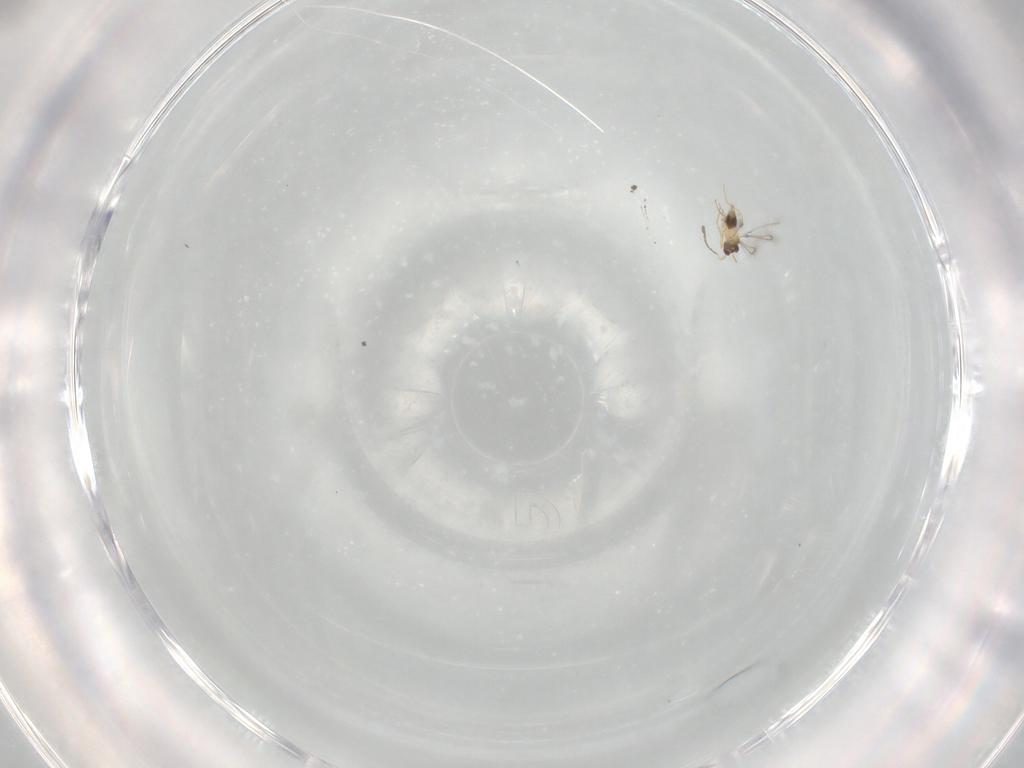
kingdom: Animalia
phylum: Arthropoda
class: Insecta
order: Hymenoptera
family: Mymaridae
